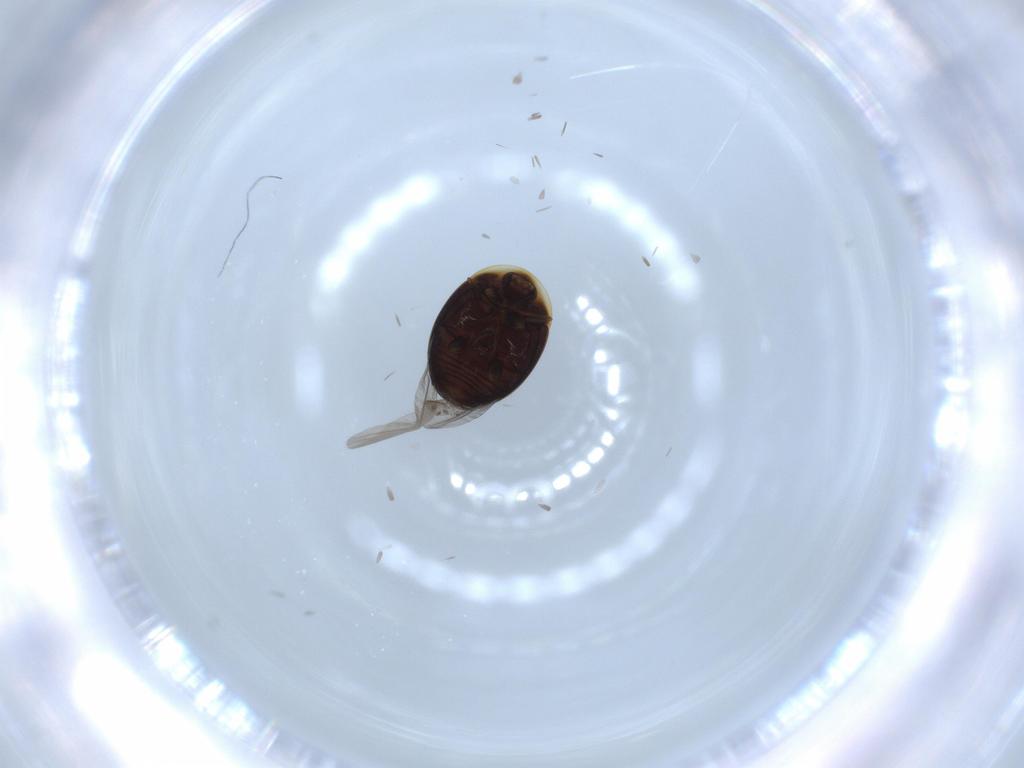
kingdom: Animalia
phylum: Arthropoda
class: Insecta
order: Coleoptera
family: Corylophidae
